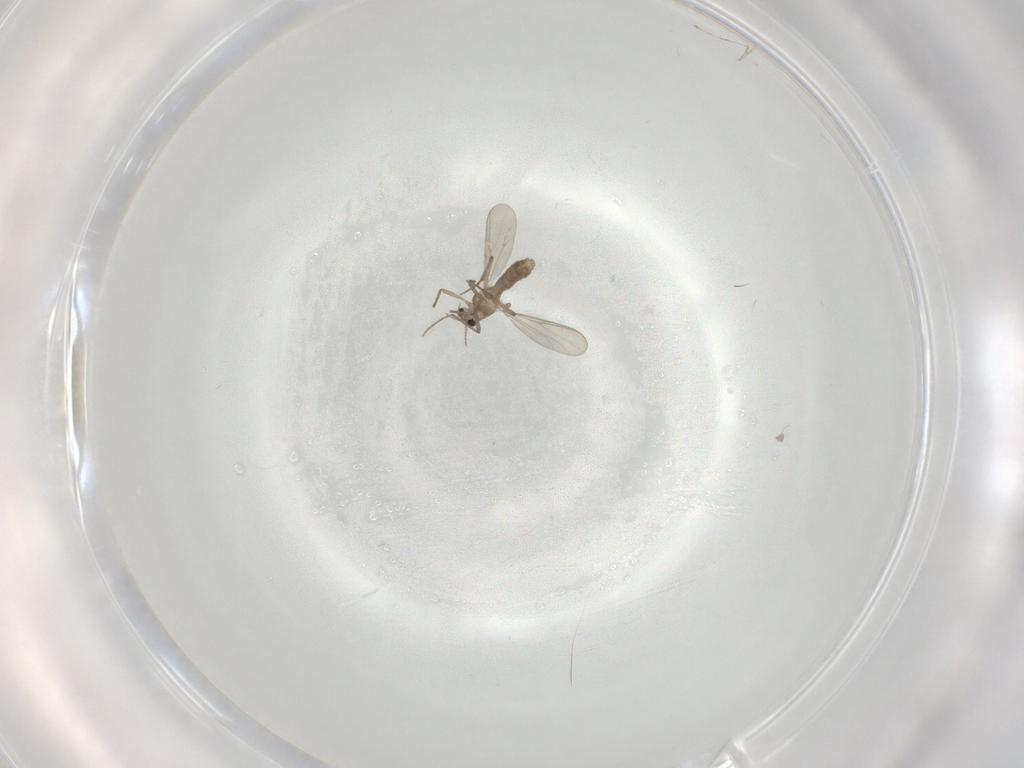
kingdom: Animalia
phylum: Arthropoda
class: Insecta
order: Diptera
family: Chironomidae
